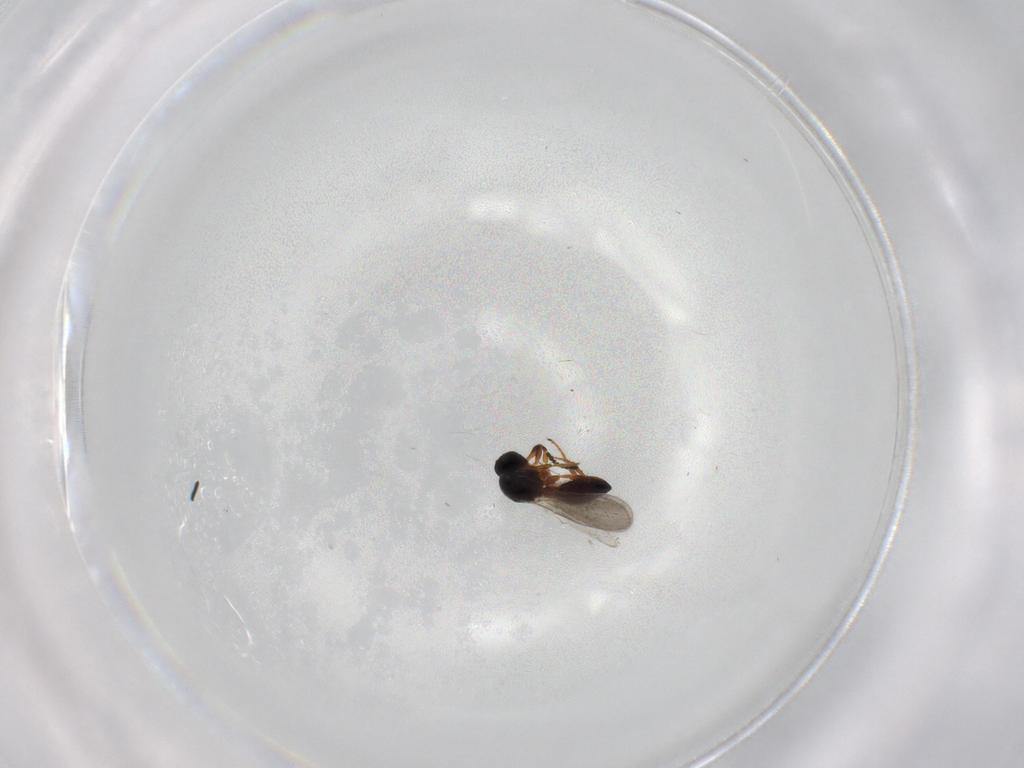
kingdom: Animalia
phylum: Arthropoda
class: Insecta
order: Hymenoptera
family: Platygastridae
